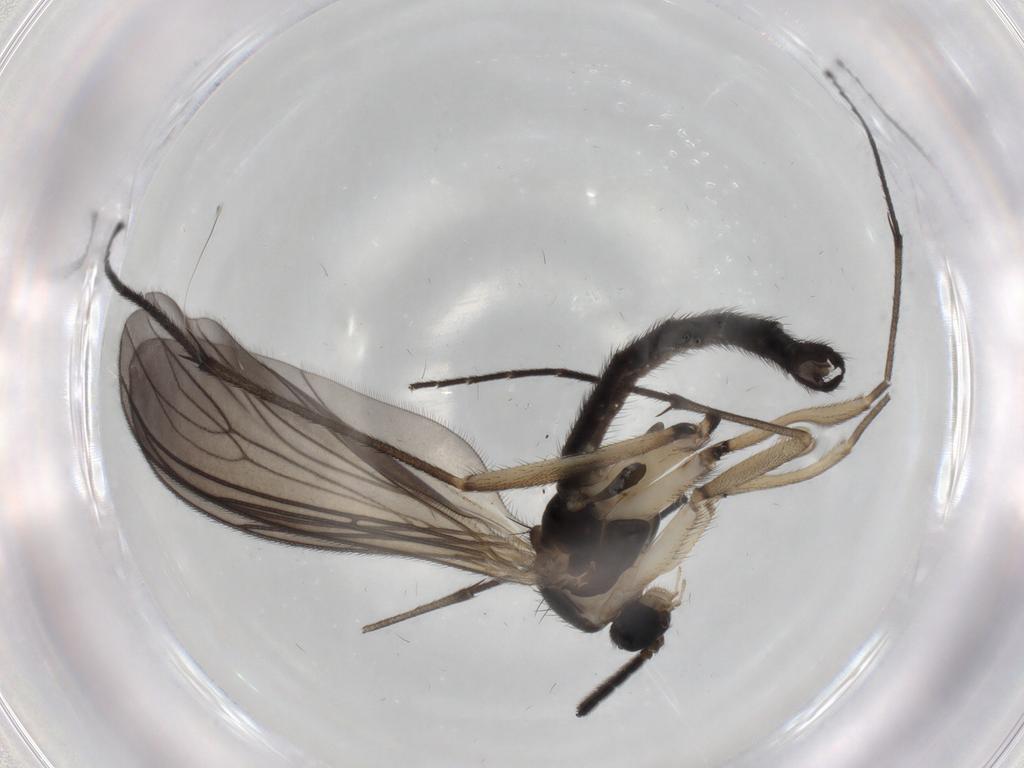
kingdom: Animalia
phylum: Arthropoda
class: Insecta
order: Diptera
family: Sciaridae
